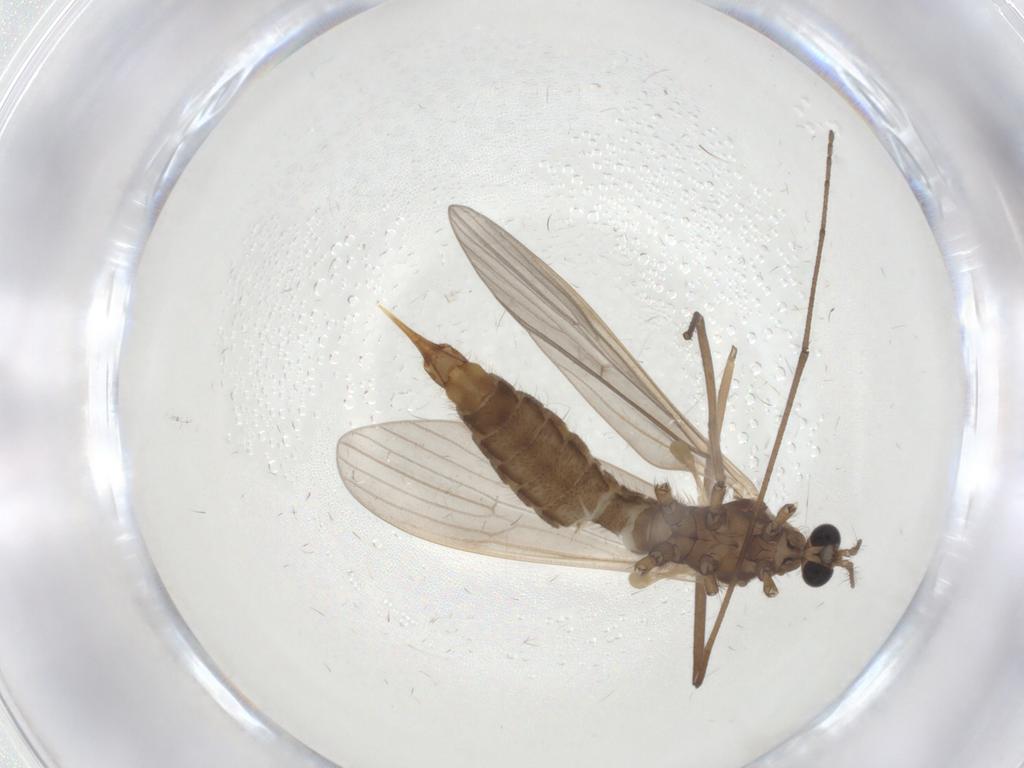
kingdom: Animalia
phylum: Arthropoda
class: Insecta
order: Diptera
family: Limoniidae
